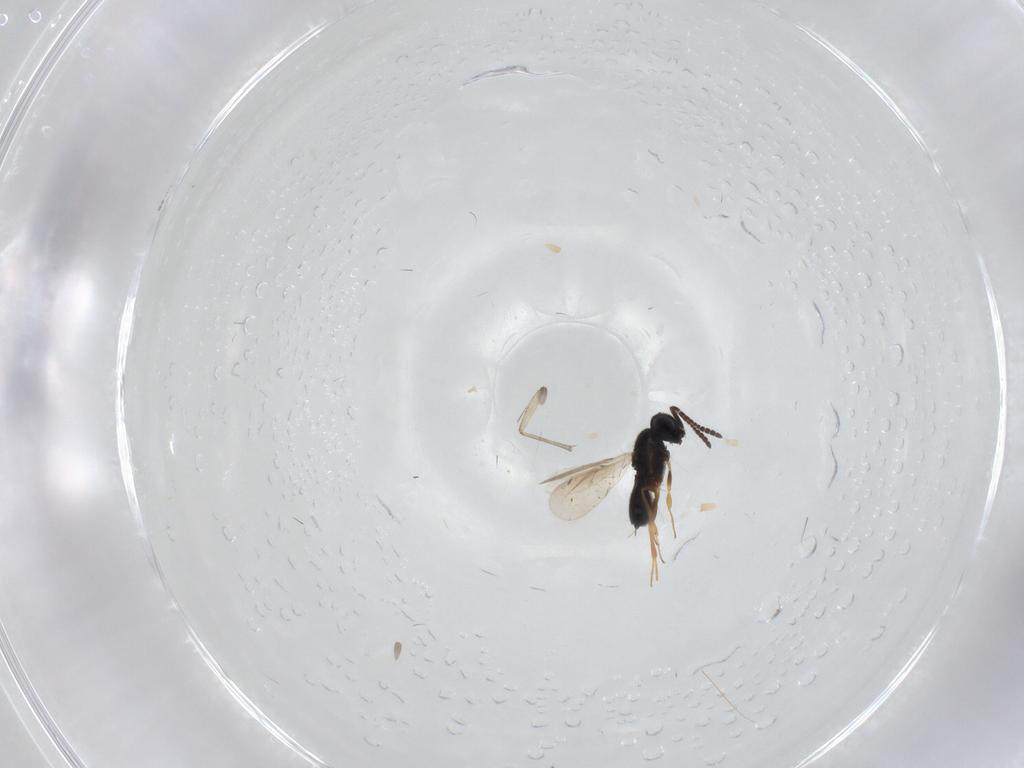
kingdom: Animalia
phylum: Arthropoda
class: Insecta
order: Hymenoptera
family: Scelionidae
